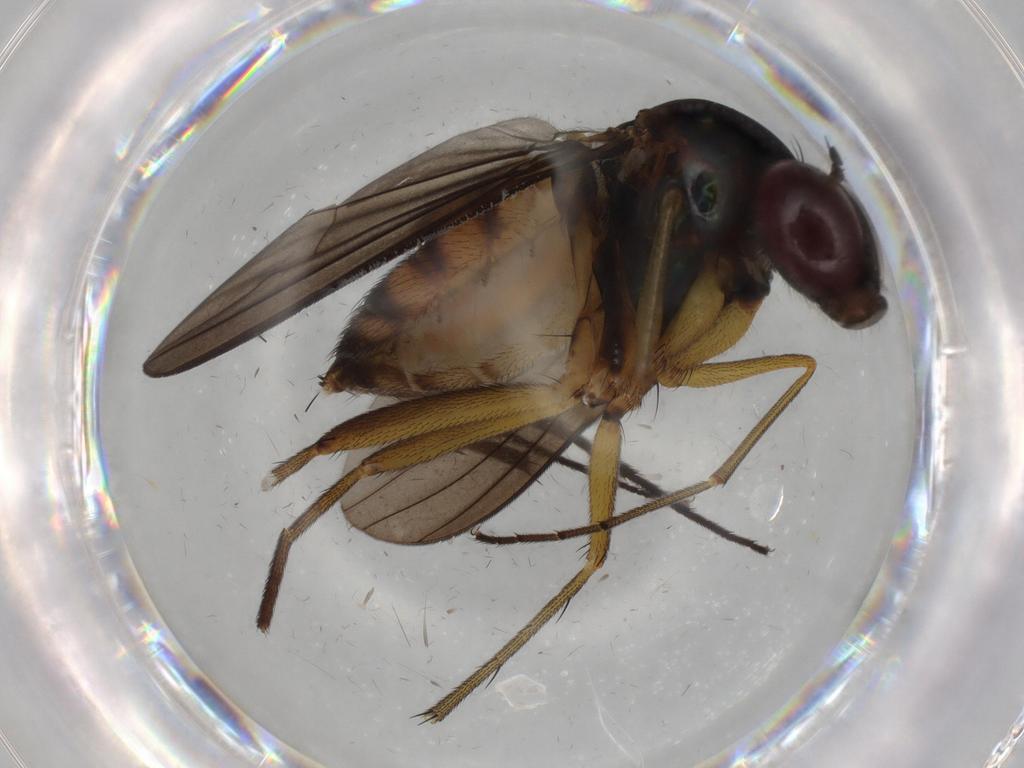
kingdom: Animalia
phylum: Arthropoda
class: Insecta
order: Diptera
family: Dolichopodidae
